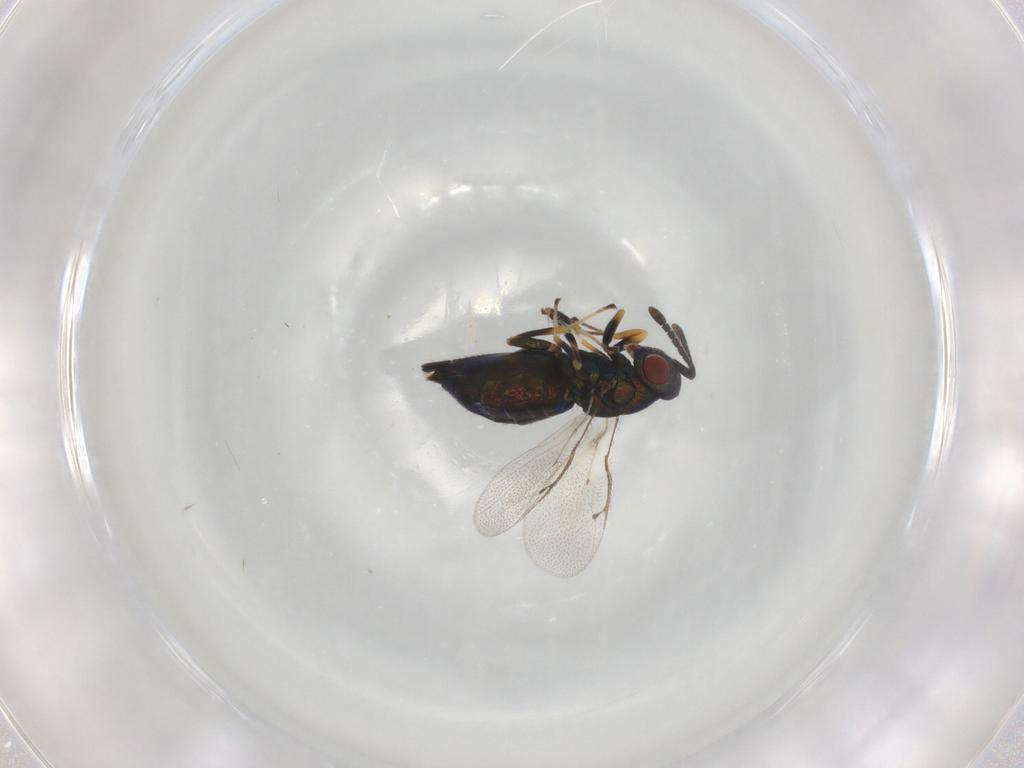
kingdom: Animalia
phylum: Arthropoda
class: Insecta
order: Hymenoptera
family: Pteromalidae
